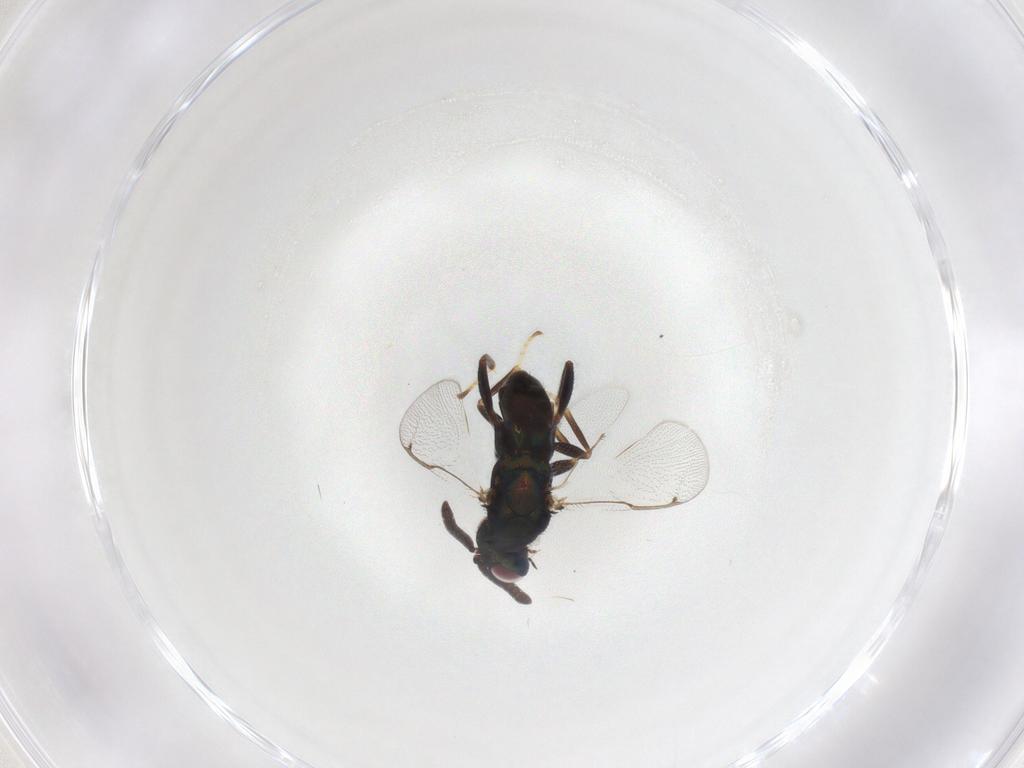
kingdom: Animalia
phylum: Arthropoda
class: Insecta
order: Hymenoptera
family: Torymidae
